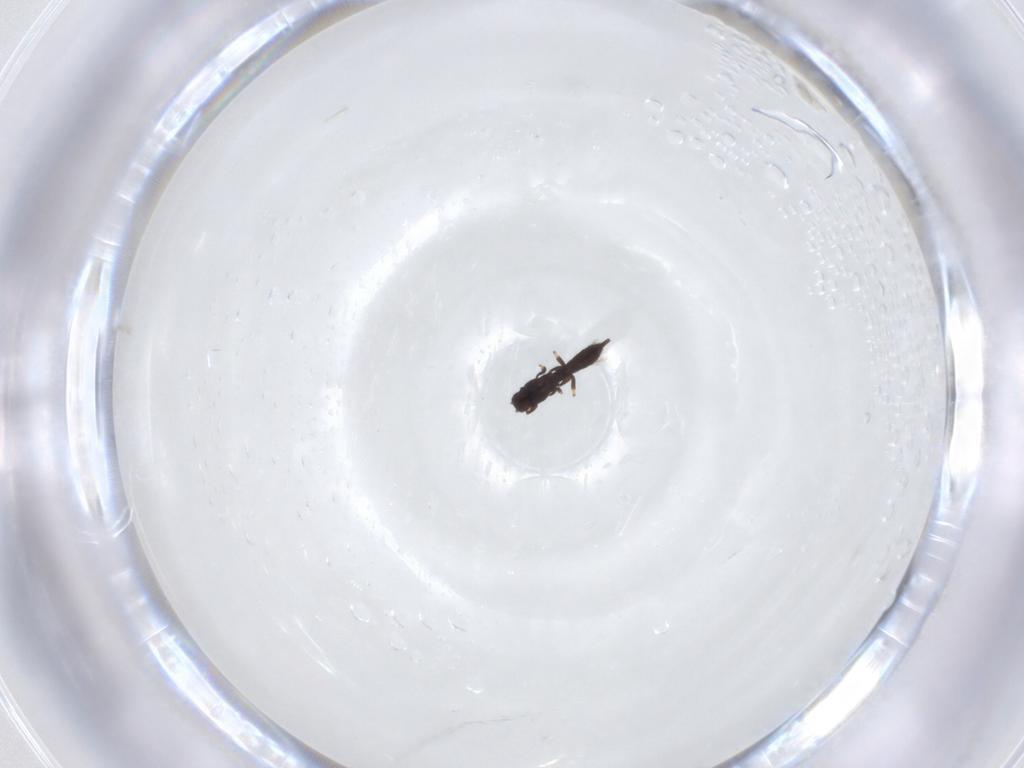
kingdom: Animalia
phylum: Arthropoda
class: Insecta
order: Thysanoptera
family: Phlaeothripidae
